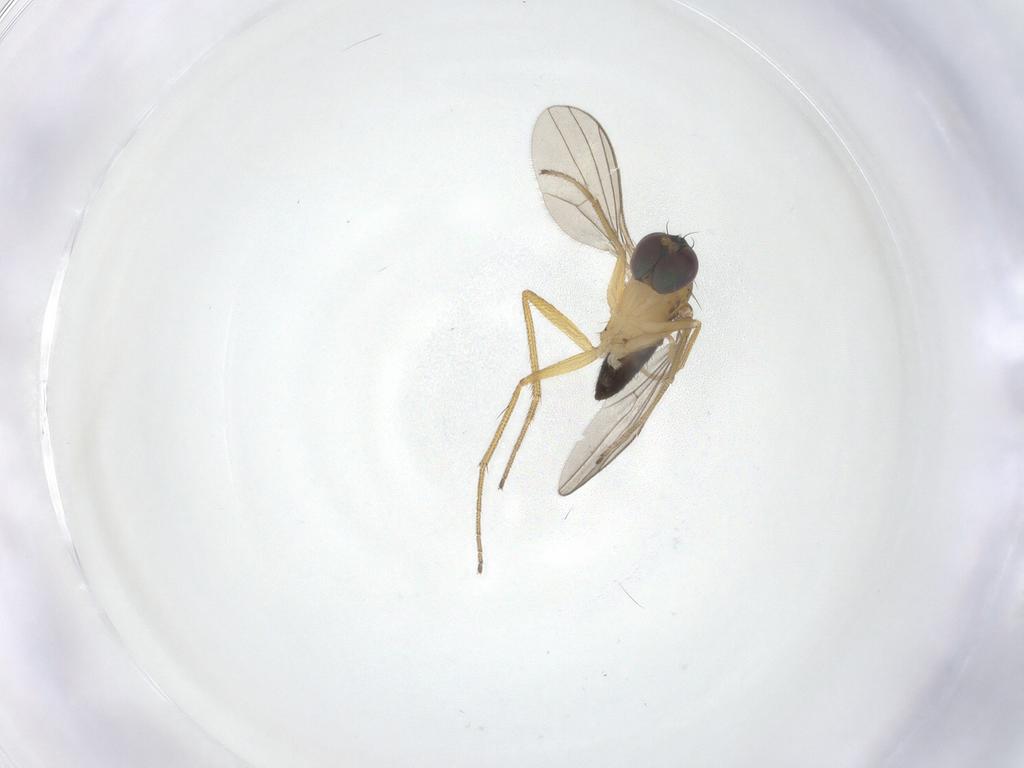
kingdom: Animalia
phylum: Arthropoda
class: Insecta
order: Diptera
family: Dolichopodidae
